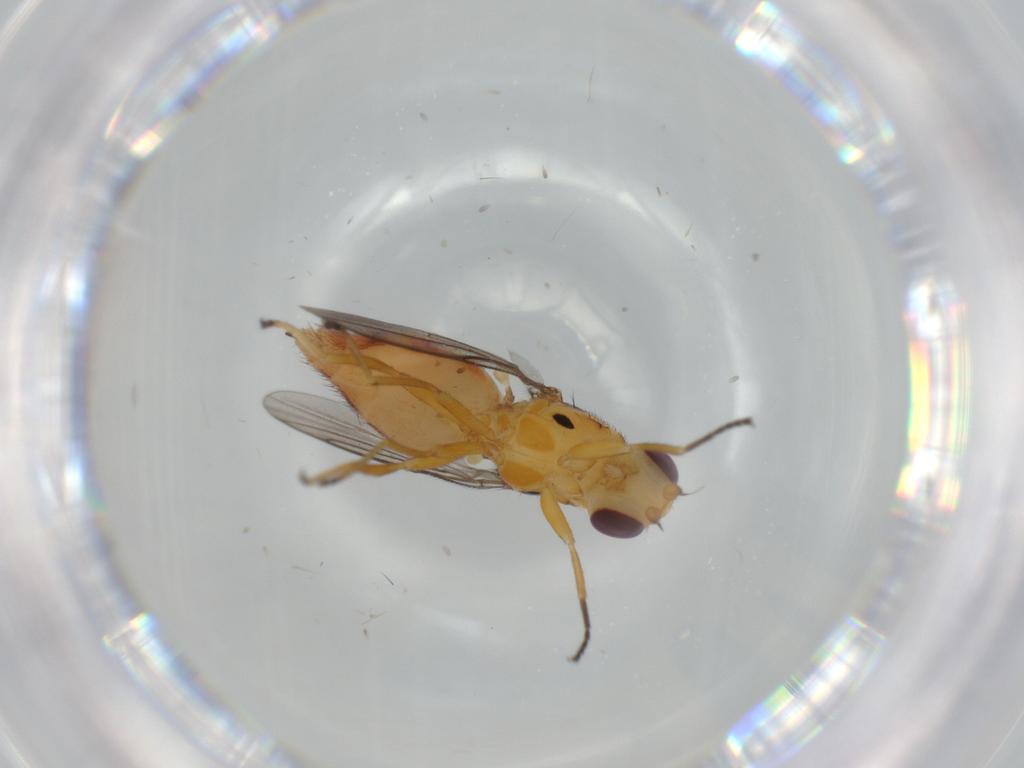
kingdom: Animalia
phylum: Arthropoda
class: Insecta
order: Diptera
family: Chloropidae
